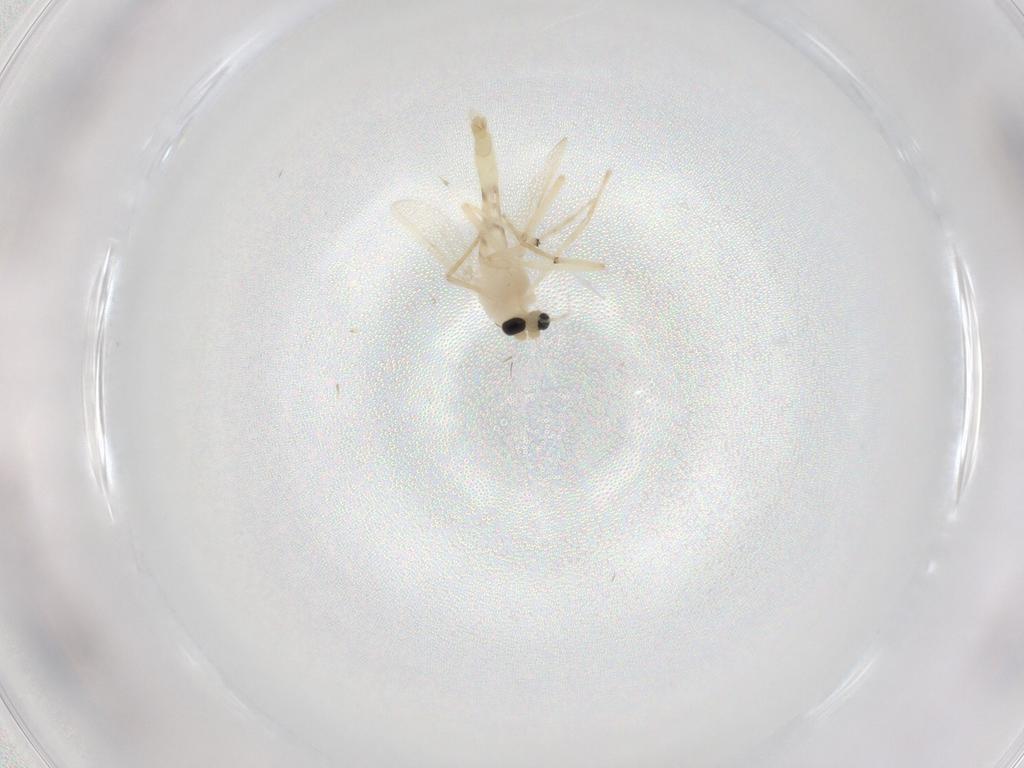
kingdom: Animalia
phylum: Arthropoda
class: Insecta
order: Diptera
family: Chironomidae
